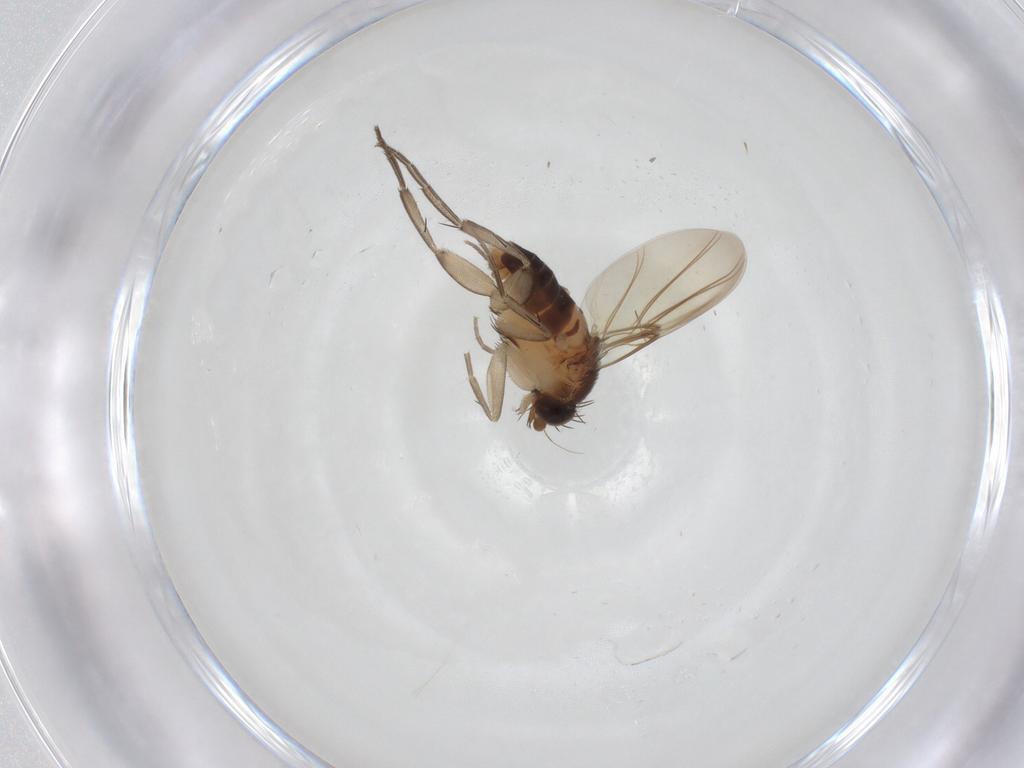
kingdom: Animalia
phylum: Arthropoda
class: Insecta
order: Diptera
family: Phoridae
